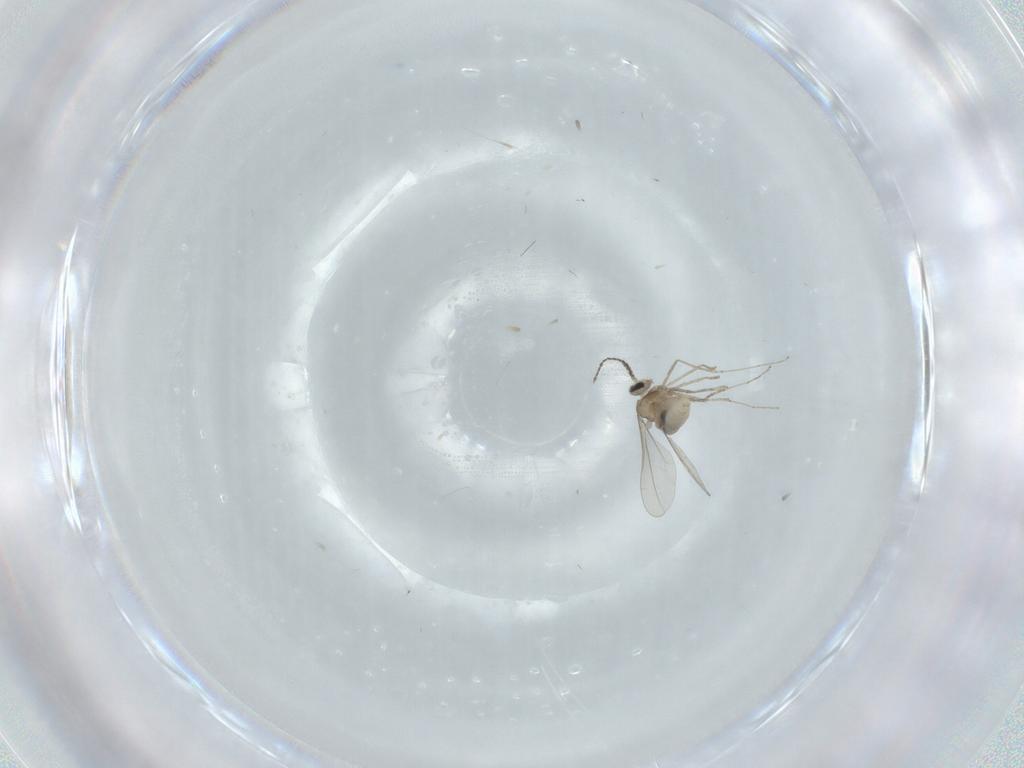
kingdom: Animalia
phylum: Arthropoda
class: Insecta
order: Diptera
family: Cecidomyiidae
